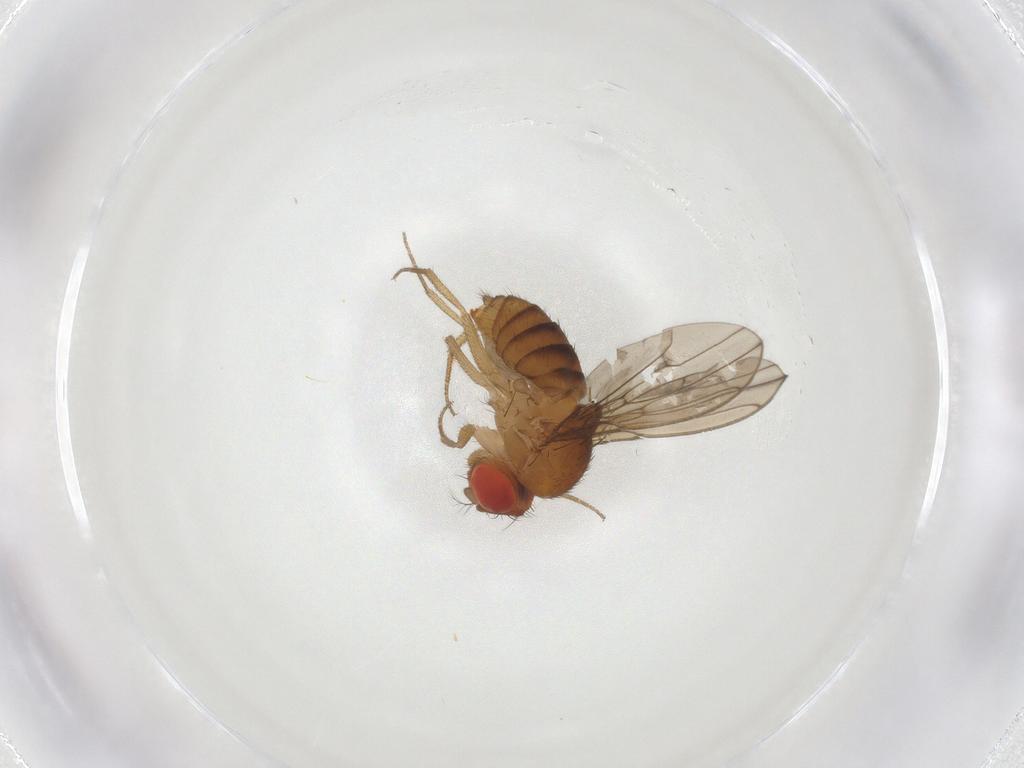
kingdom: Animalia
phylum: Arthropoda
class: Insecta
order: Diptera
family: Drosophilidae
